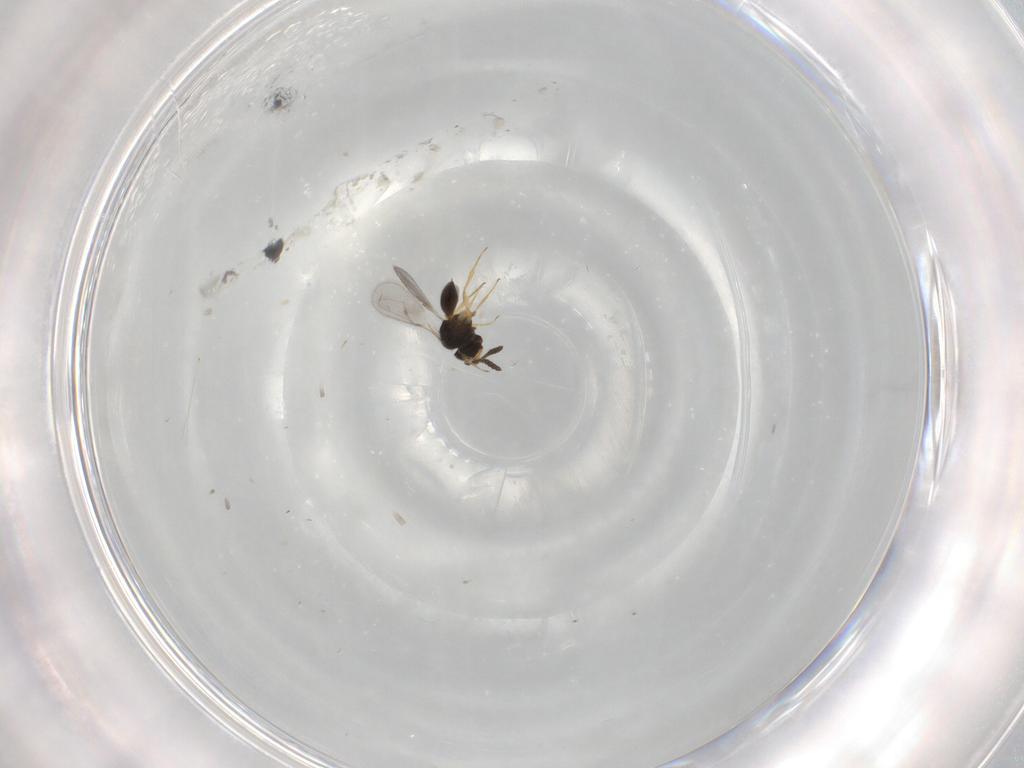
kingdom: Animalia
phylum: Arthropoda
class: Insecta
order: Hymenoptera
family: Scelionidae
